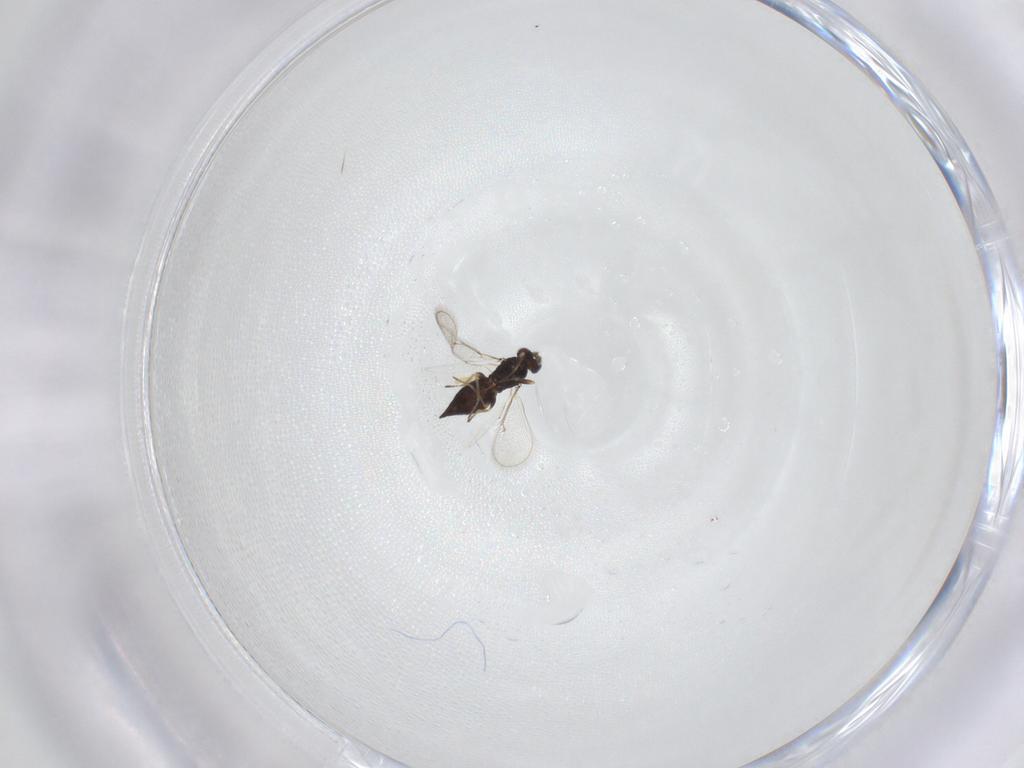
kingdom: Animalia
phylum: Arthropoda
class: Insecta
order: Hymenoptera
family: Eulophidae
